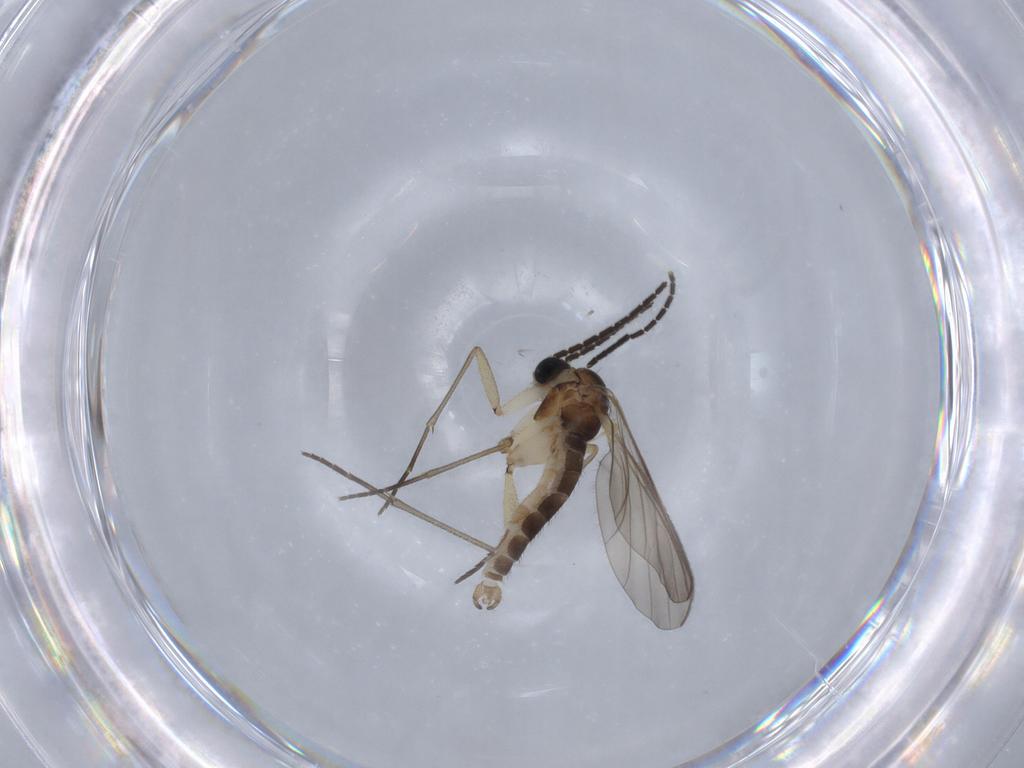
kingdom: Animalia
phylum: Arthropoda
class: Insecta
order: Diptera
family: Sciaridae
